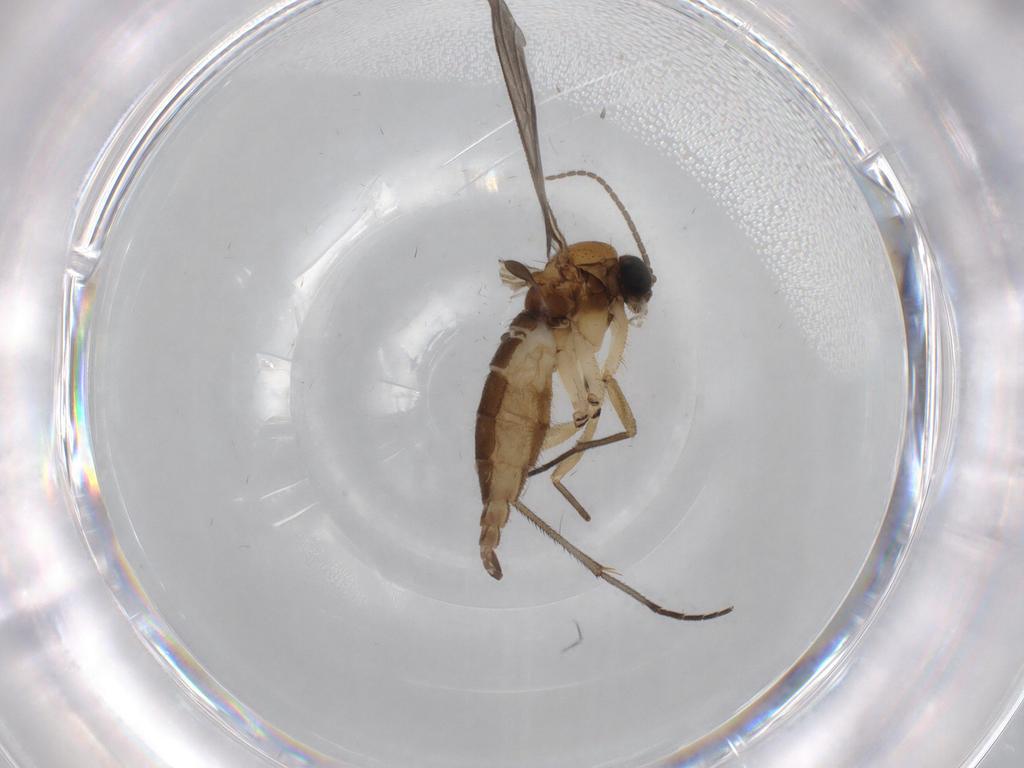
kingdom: Animalia
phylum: Arthropoda
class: Insecta
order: Diptera
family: Sciaridae
